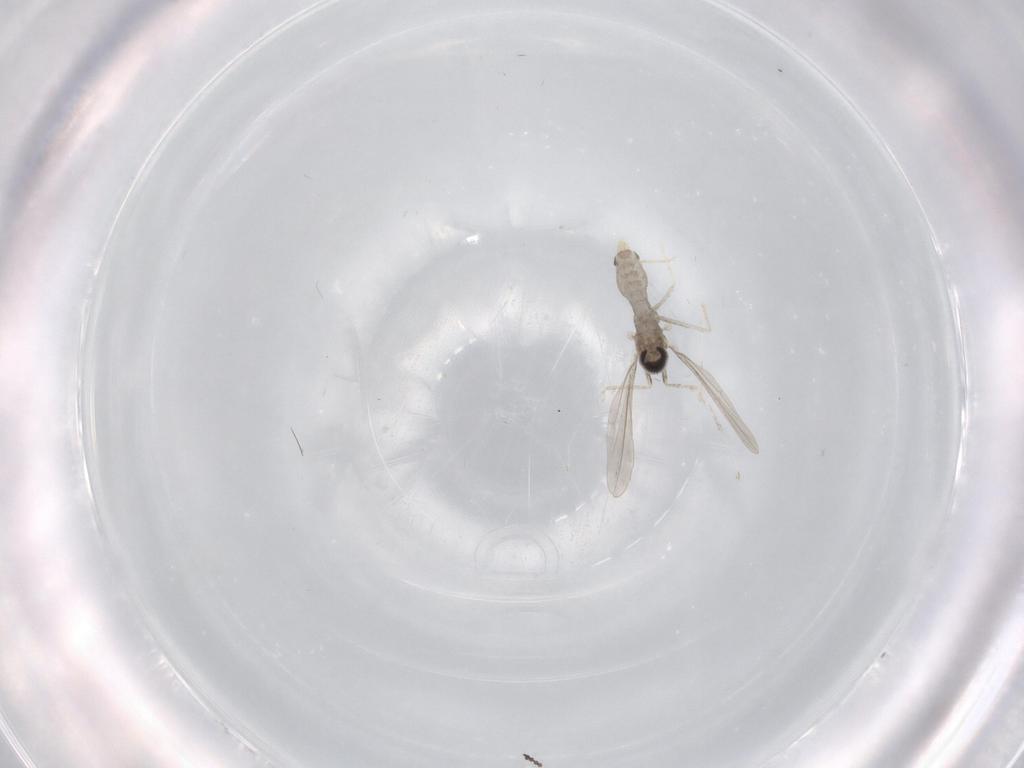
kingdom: Animalia
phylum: Arthropoda
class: Insecta
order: Diptera
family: Cecidomyiidae
